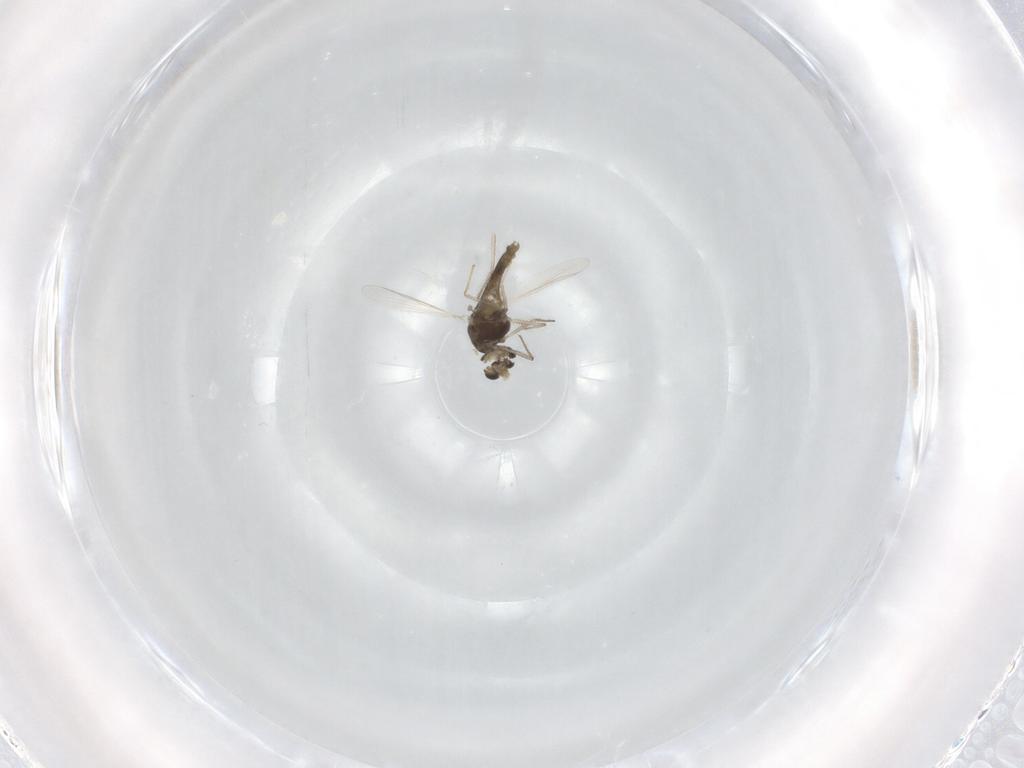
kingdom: Animalia
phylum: Arthropoda
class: Insecta
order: Diptera
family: Chironomidae
